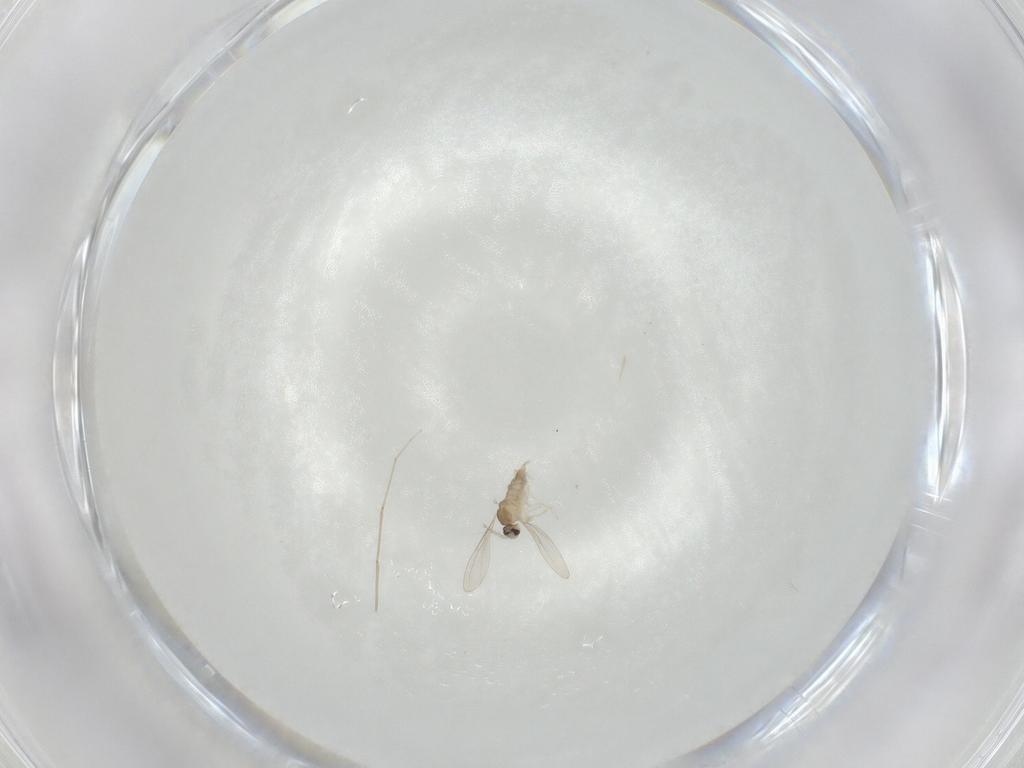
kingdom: Animalia
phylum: Arthropoda
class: Insecta
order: Diptera
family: Chironomidae
